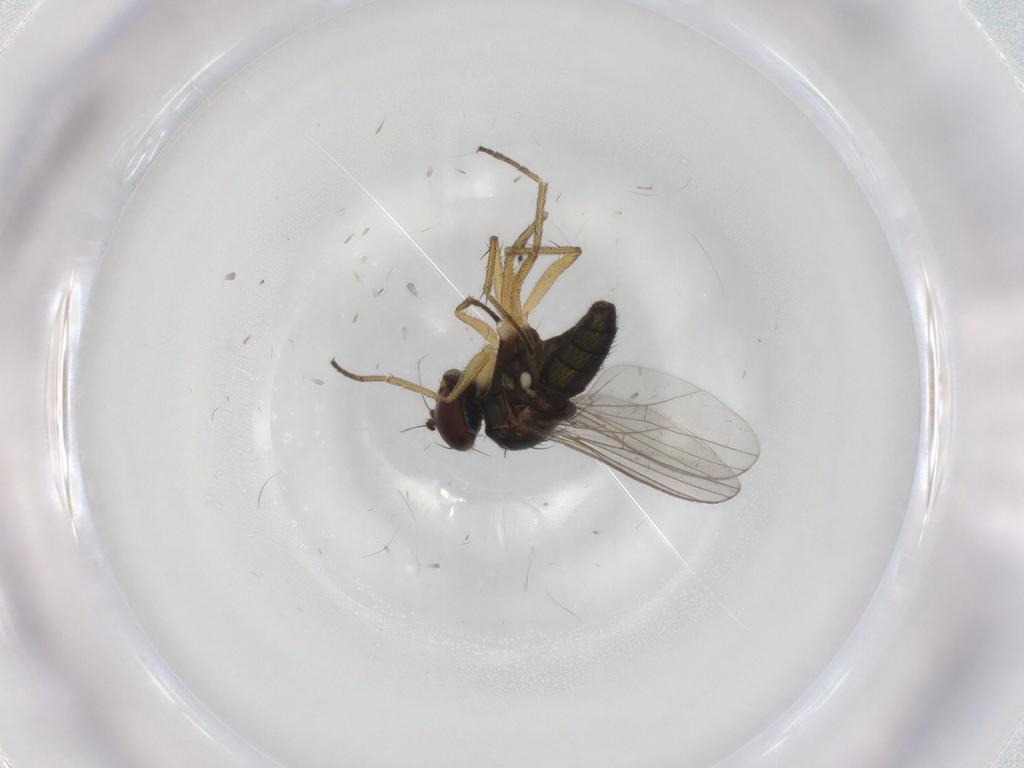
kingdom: Animalia
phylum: Arthropoda
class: Insecta
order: Diptera
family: Dolichopodidae
